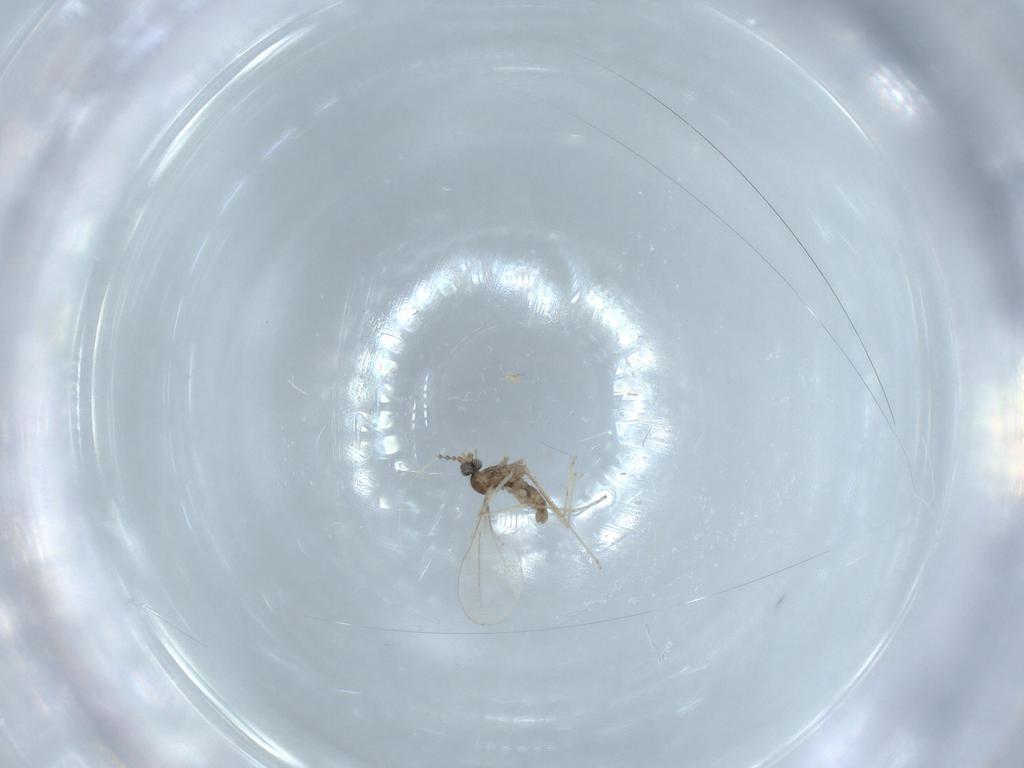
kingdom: Animalia
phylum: Arthropoda
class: Insecta
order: Diptera
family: Cecidomyiidae
